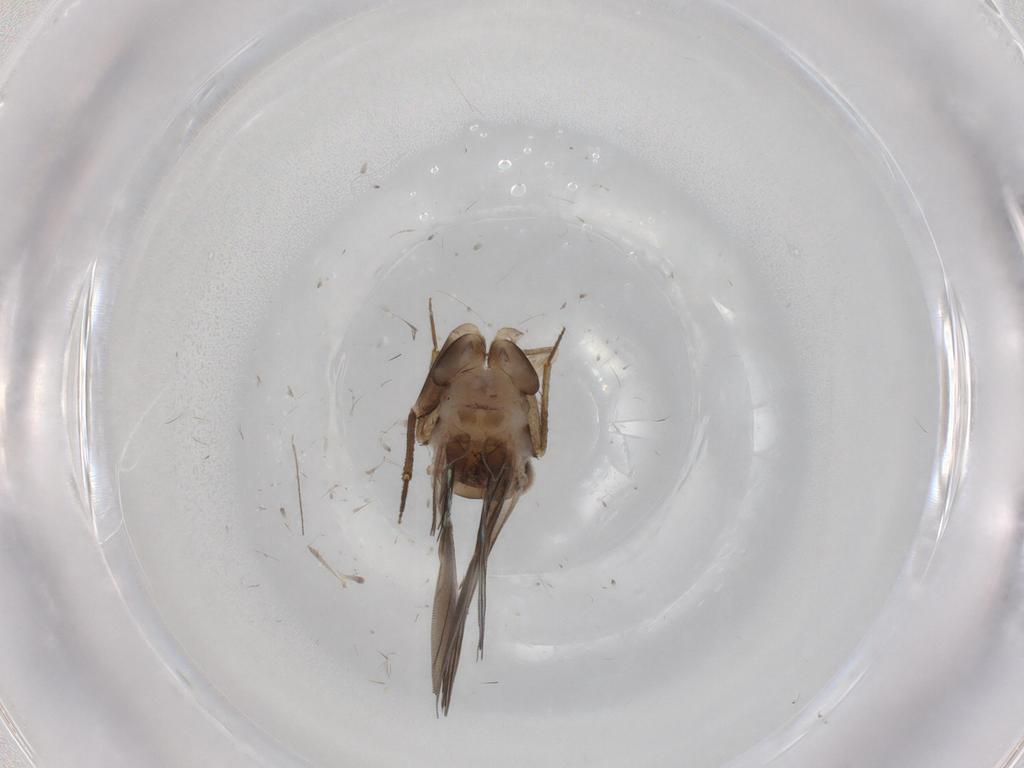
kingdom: Animalia
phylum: Arthropoda
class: Insecta
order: Psocodea
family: Lepidopsocidae
